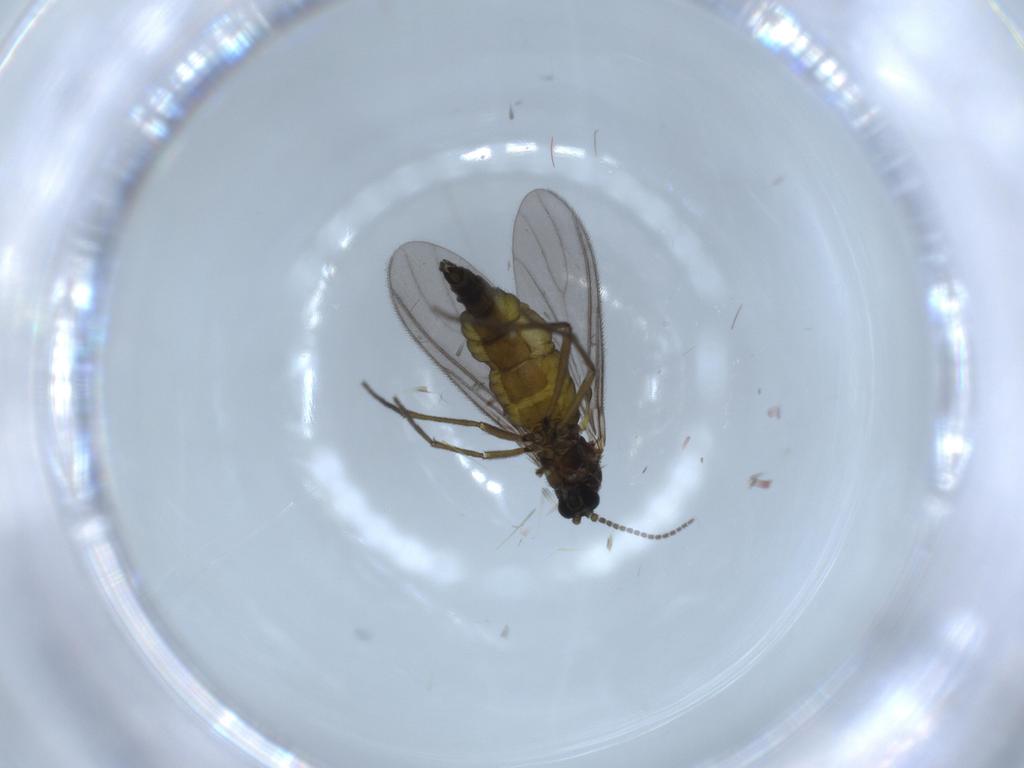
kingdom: Animalia
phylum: Arthropoda
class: Insecta
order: Diptera
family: Sciaridae
